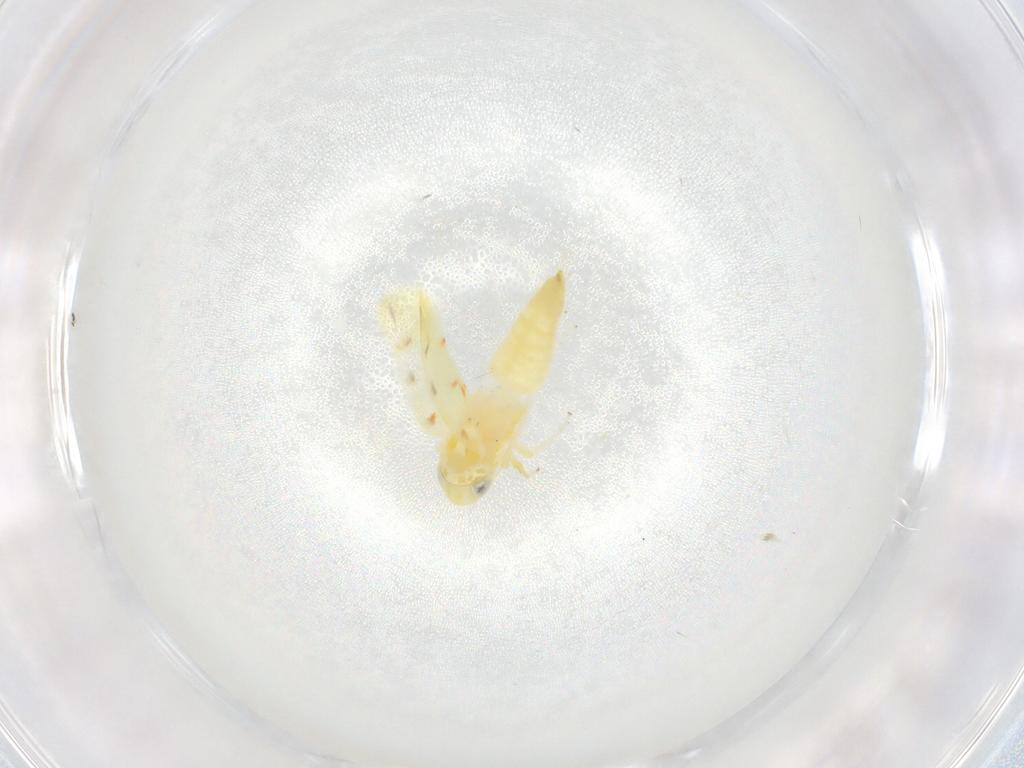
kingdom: Animalia
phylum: Arthropoda
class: Insecta
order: Hemiptera
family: Cicadellidae
